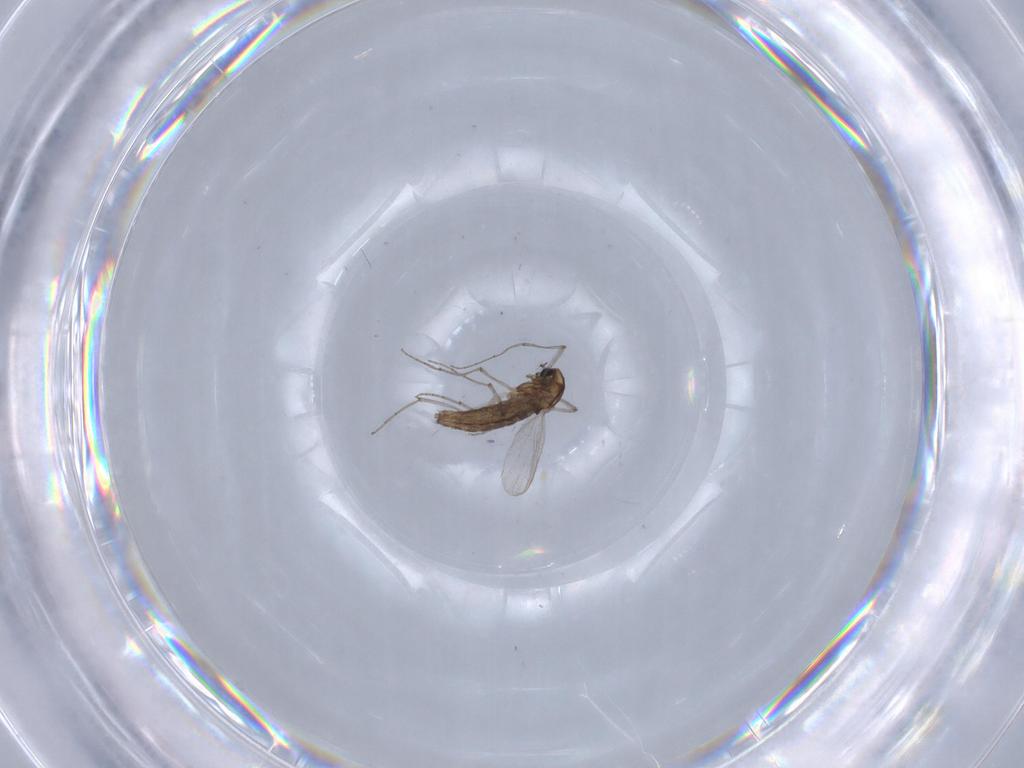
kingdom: Animalia
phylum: Arthropoda
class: Insecta
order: Diptera
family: Chironomidae
